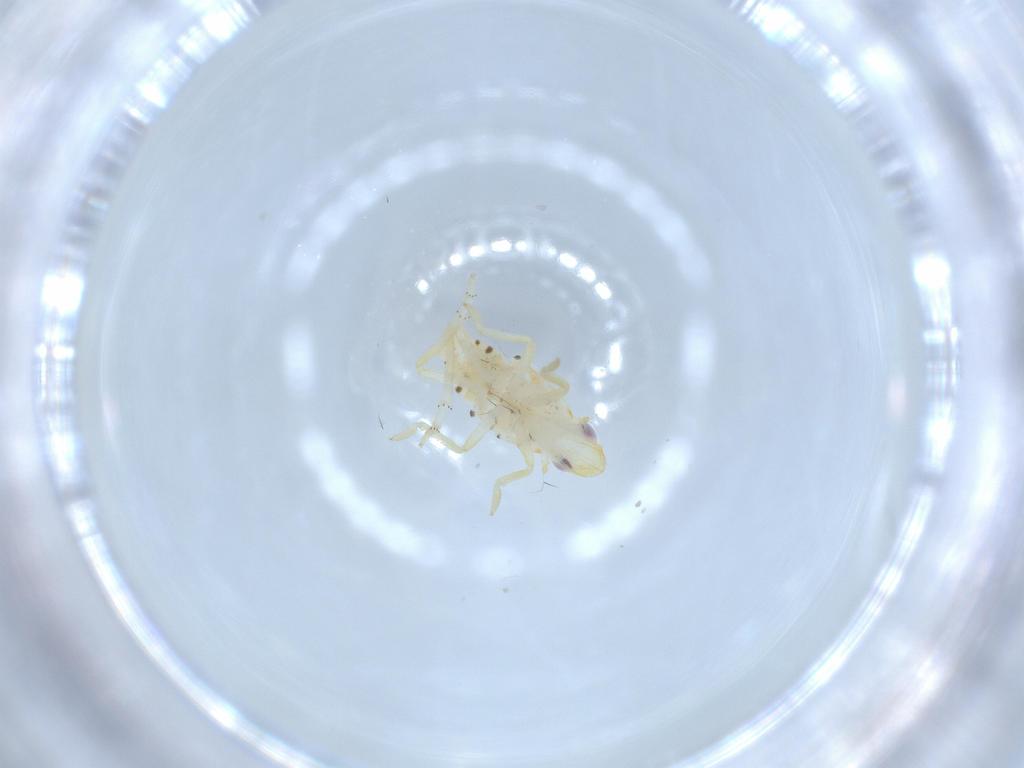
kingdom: Animalia
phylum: Arthropoda
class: Insecta
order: Hemiptera
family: Tropiduchidae
